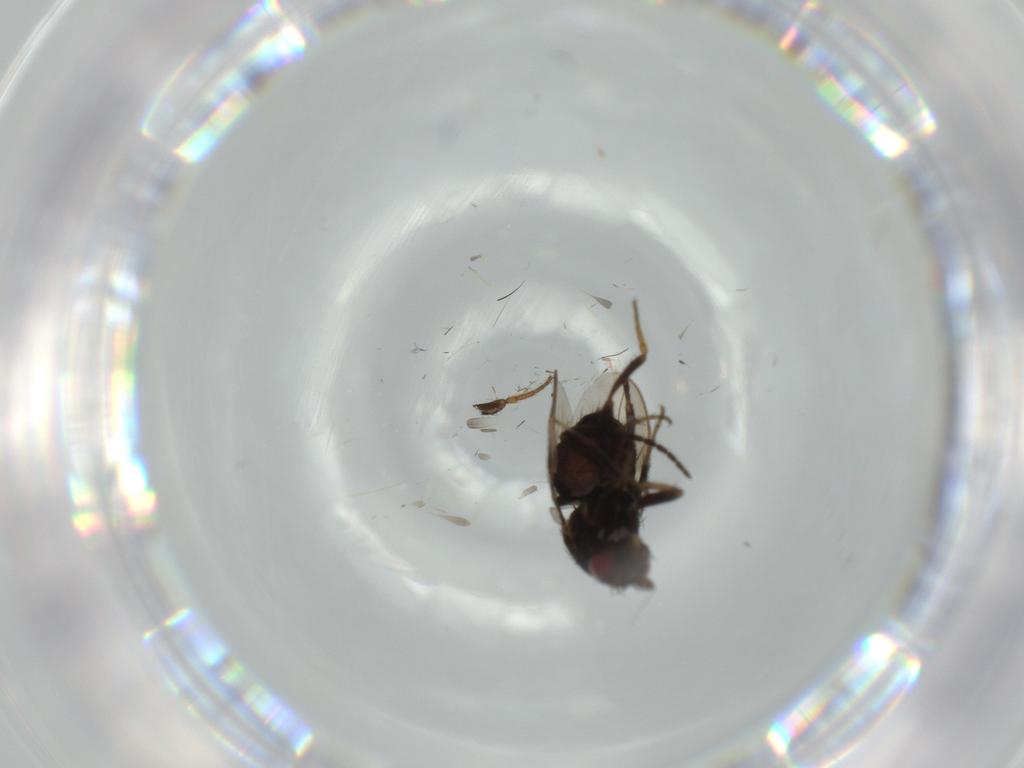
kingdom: Animalia
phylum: Arthropoda
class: Insecta
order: Diptera
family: Sphaeroceridae
